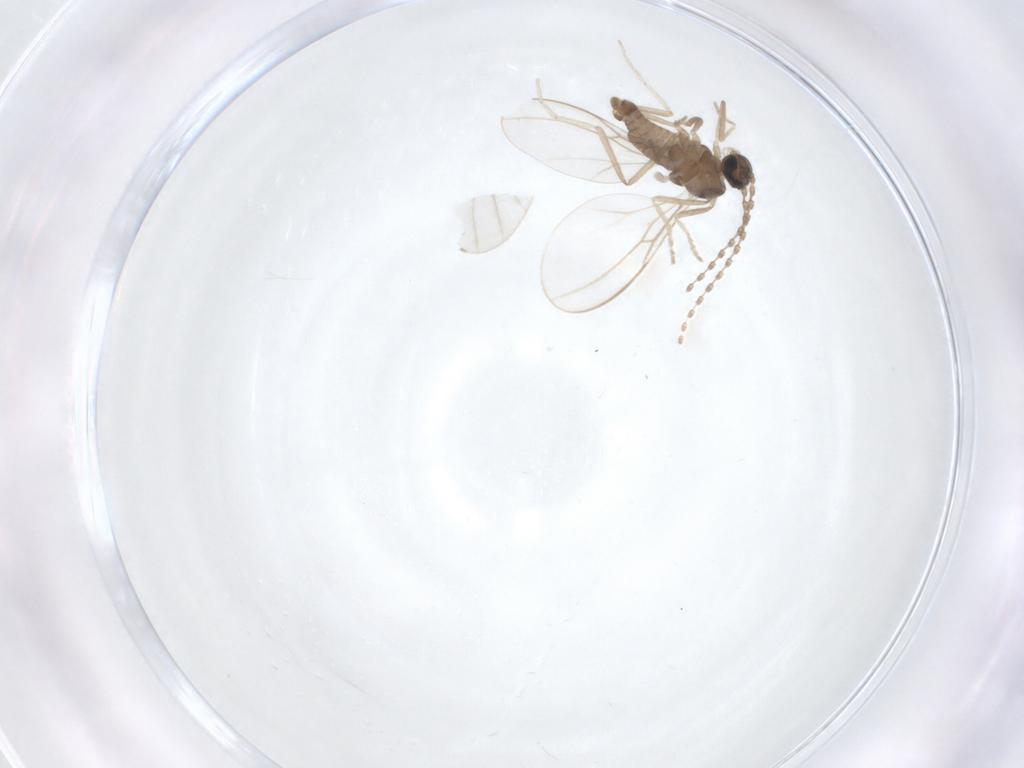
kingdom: Animalia
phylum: Arthropoda
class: Insecta
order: Diptera
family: Cecidomyiidae
